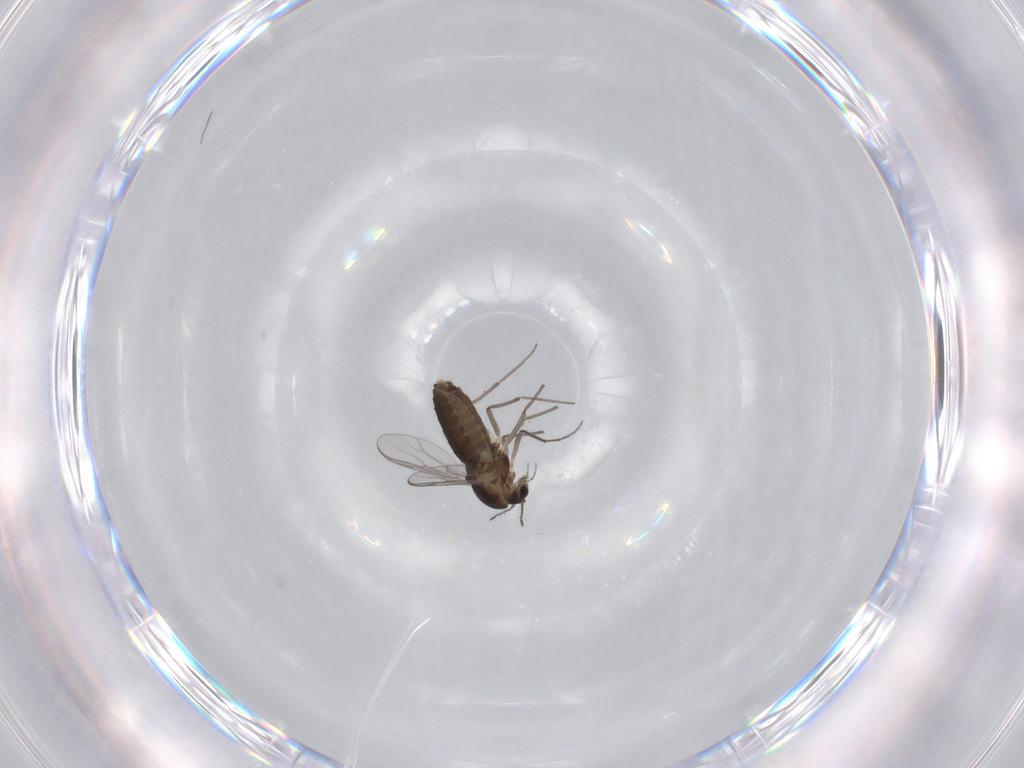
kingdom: Animalia
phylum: Arthropoda
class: Insecta
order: Diptera
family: Chironomidae
